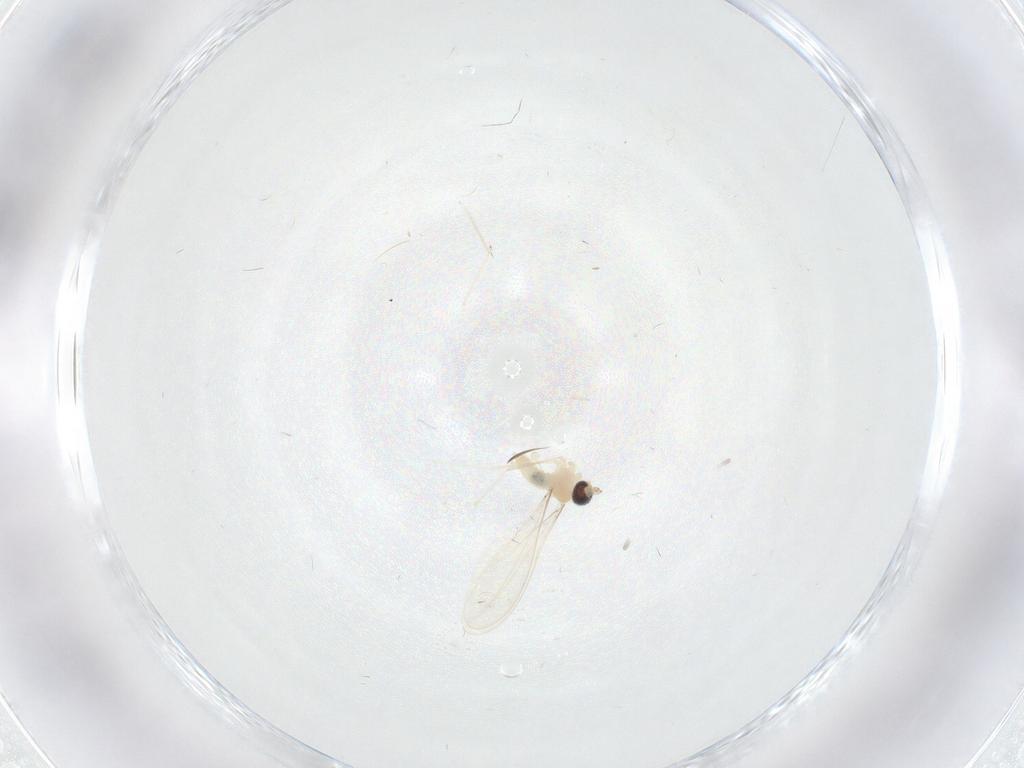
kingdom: Animalia
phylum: Arthropoda
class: Insecta
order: Diptera
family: Cecidomyiidae
